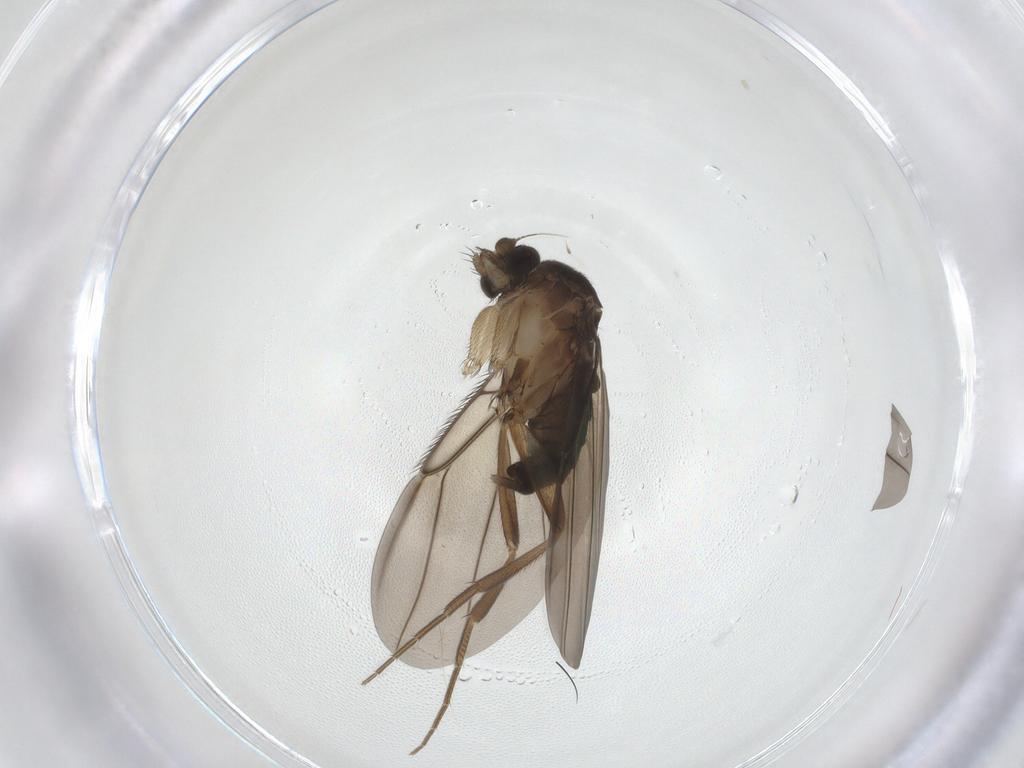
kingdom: Animalia
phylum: Arthropoda
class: Insecta
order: Diptera
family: Phoridae
